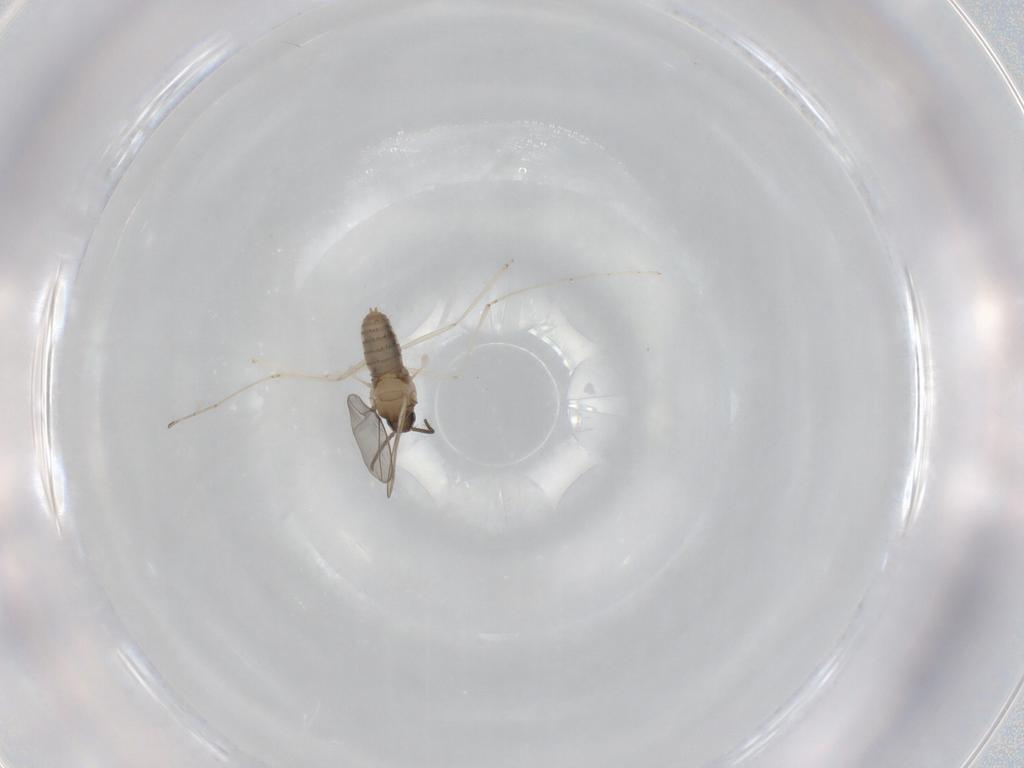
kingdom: Animalia
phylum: Arthropoda
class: Insecta
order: Diptera
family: Cecidomyiidae
